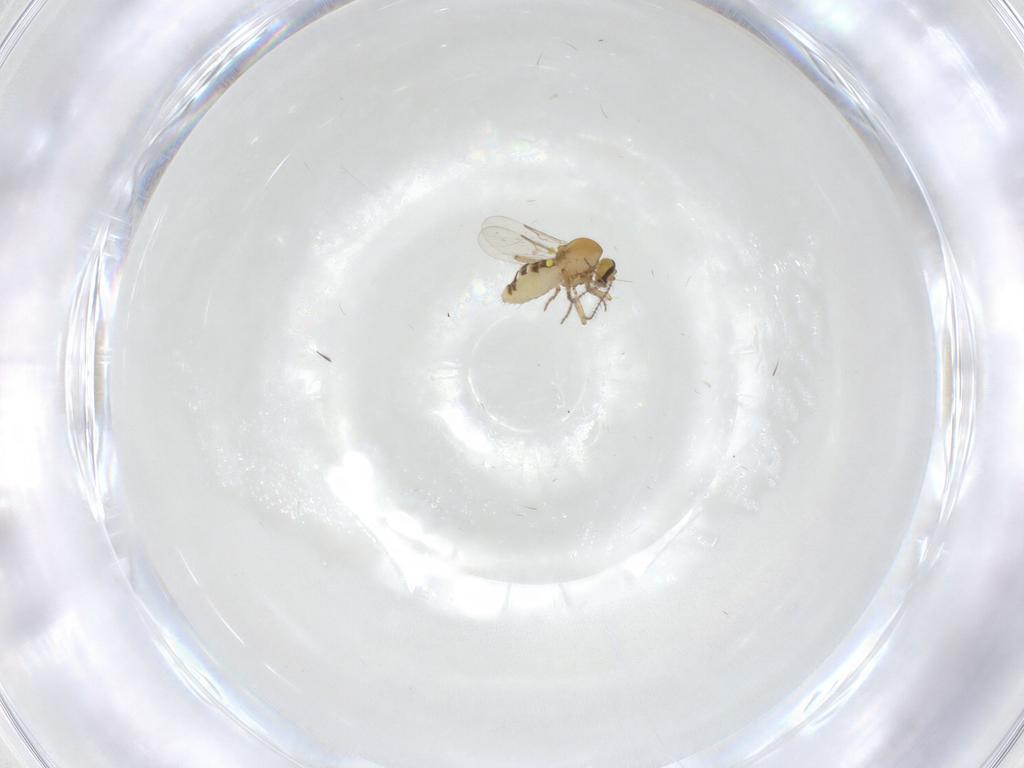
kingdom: Animalia
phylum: Arthropoda
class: Insecta
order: Diptera
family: Ceratopogonidae
